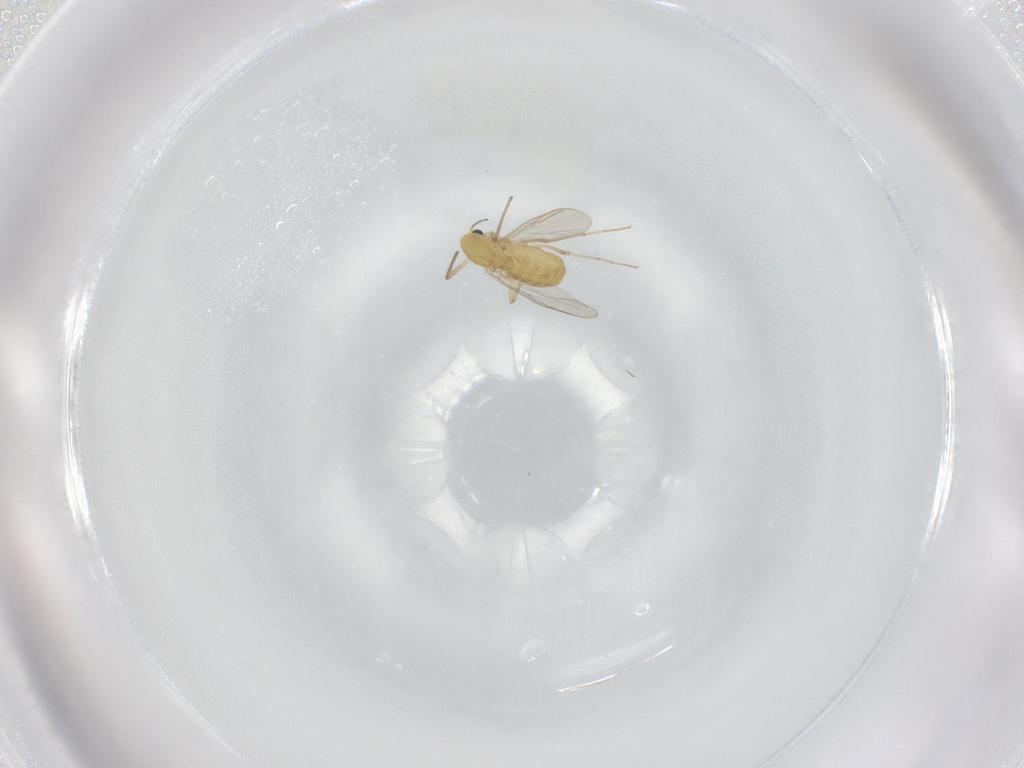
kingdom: Animalia
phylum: Arthropoda
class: Insecta
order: Diptera
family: Chironomidae
